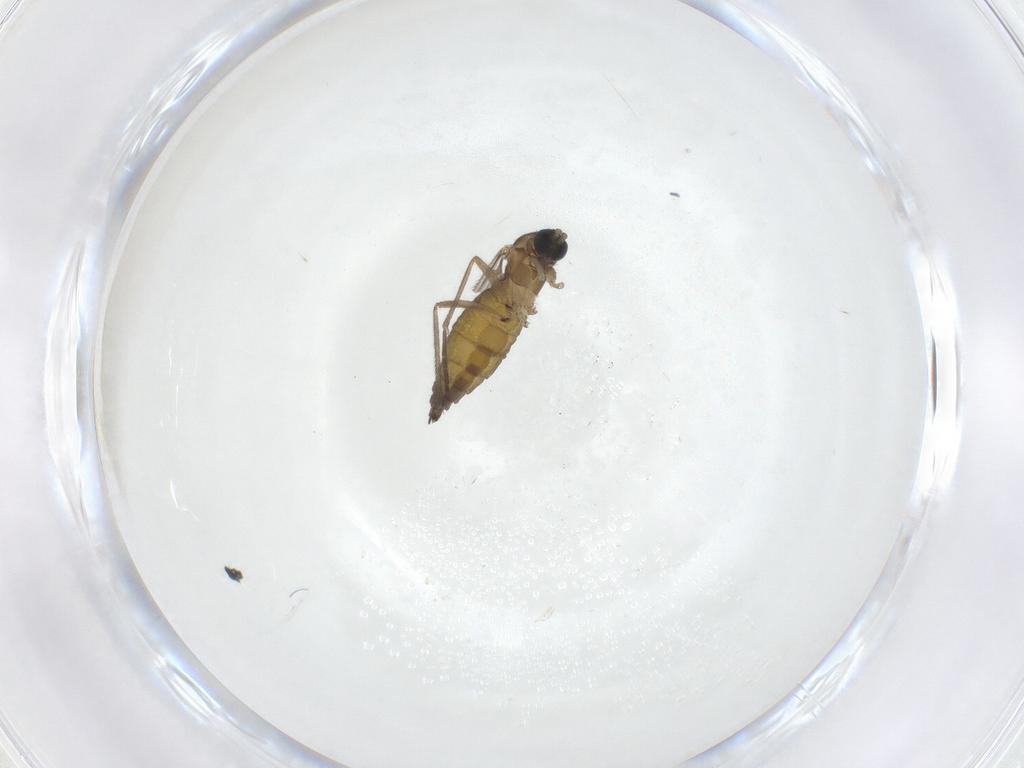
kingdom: Animalia
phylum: Arthropoda
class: Insecta
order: Diptera
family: Sciaridae
